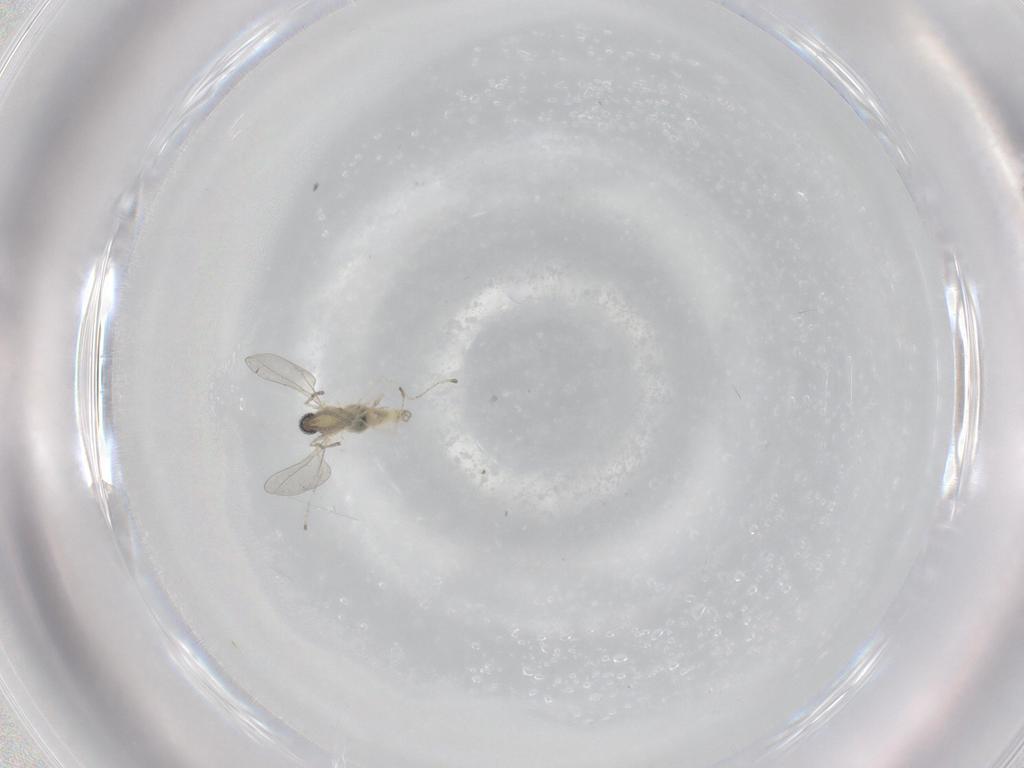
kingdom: Animalia
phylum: Arthropoda
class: Insecta
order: Diptera
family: Cecidomyiidae
